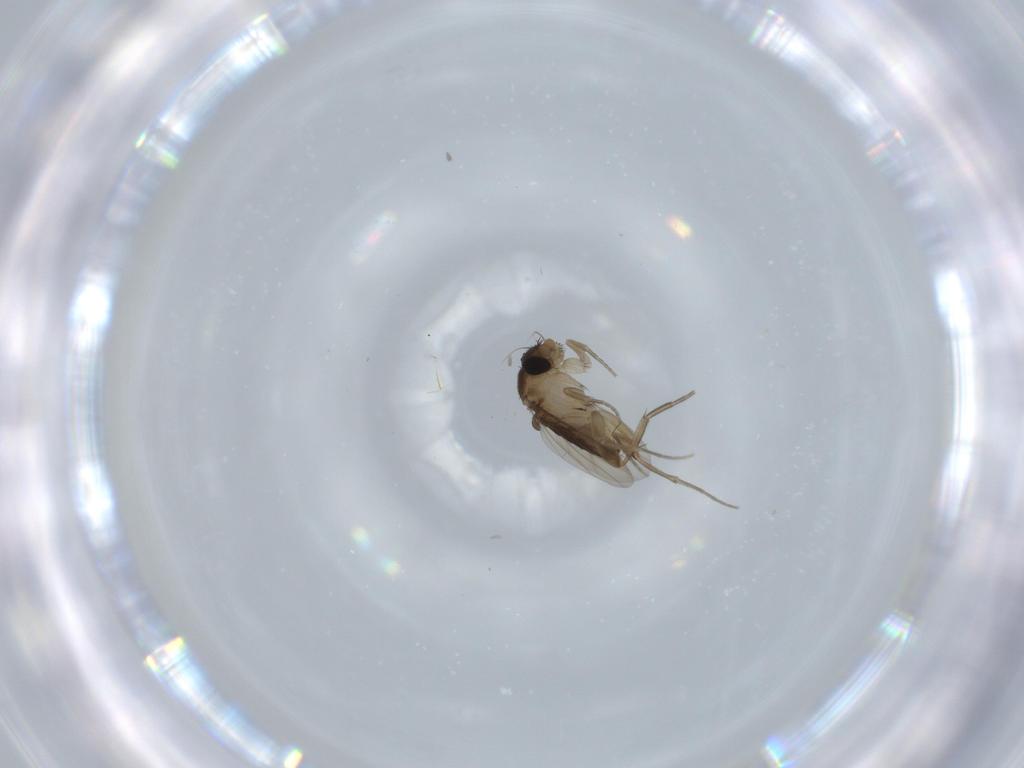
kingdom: Animalia
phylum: Arthropoda
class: Insecta
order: Diptera
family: Phoridae
